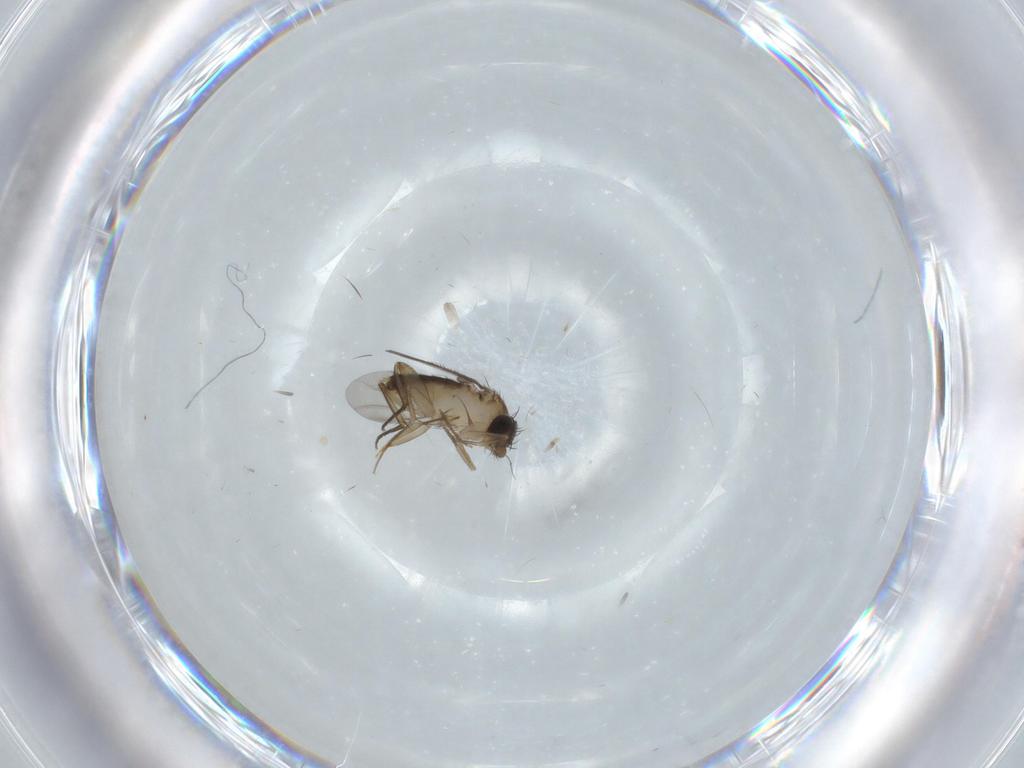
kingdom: Animalia
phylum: Arthropoda
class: Insecta
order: Diptera
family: Phoridae
